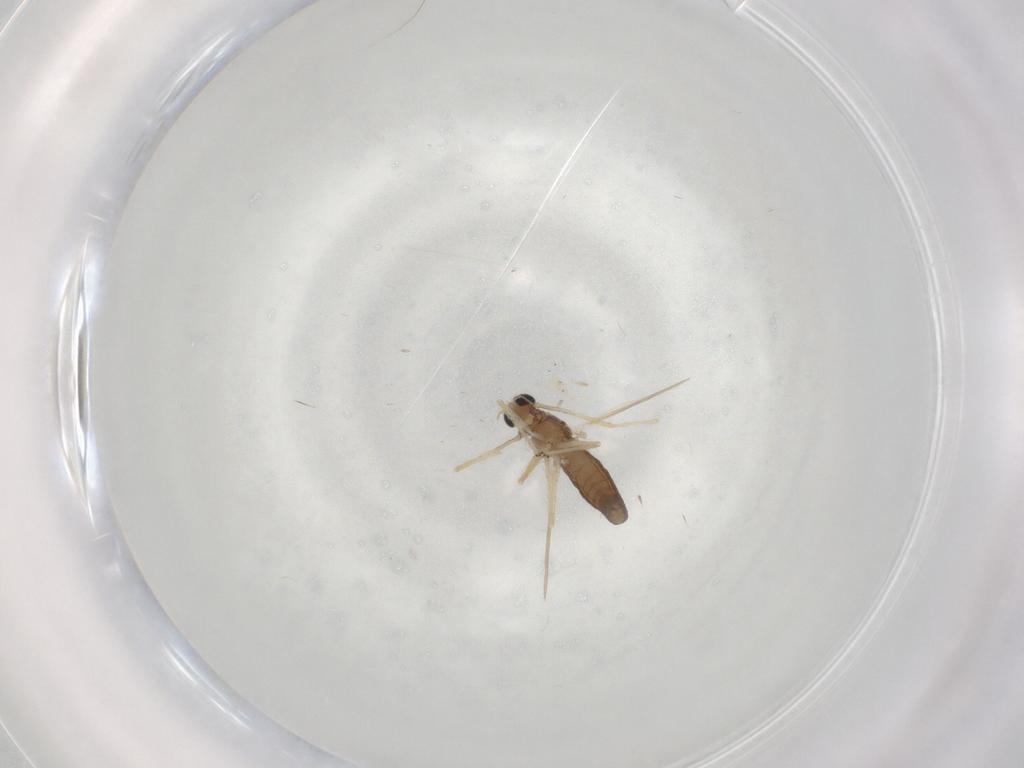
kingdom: Animalia
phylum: Arthropoda
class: Insecta
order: Diptera
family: Chironomidae
